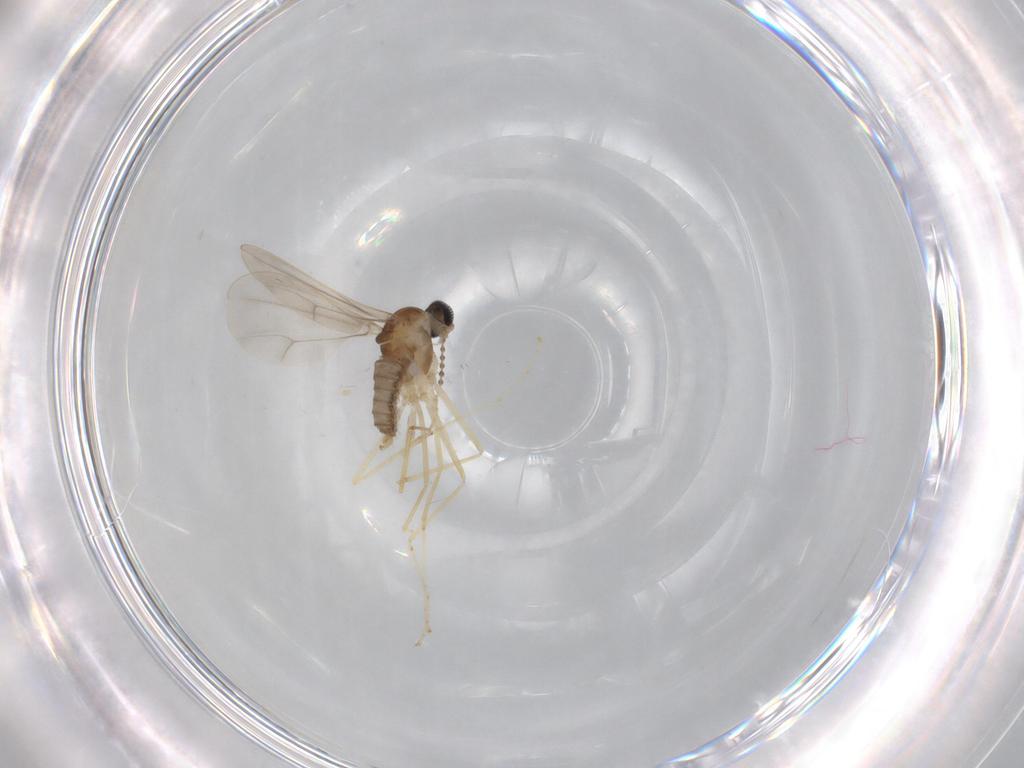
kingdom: Animalia
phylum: Arthropoda
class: Insecta
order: Diptera
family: Cecidomyiidae
